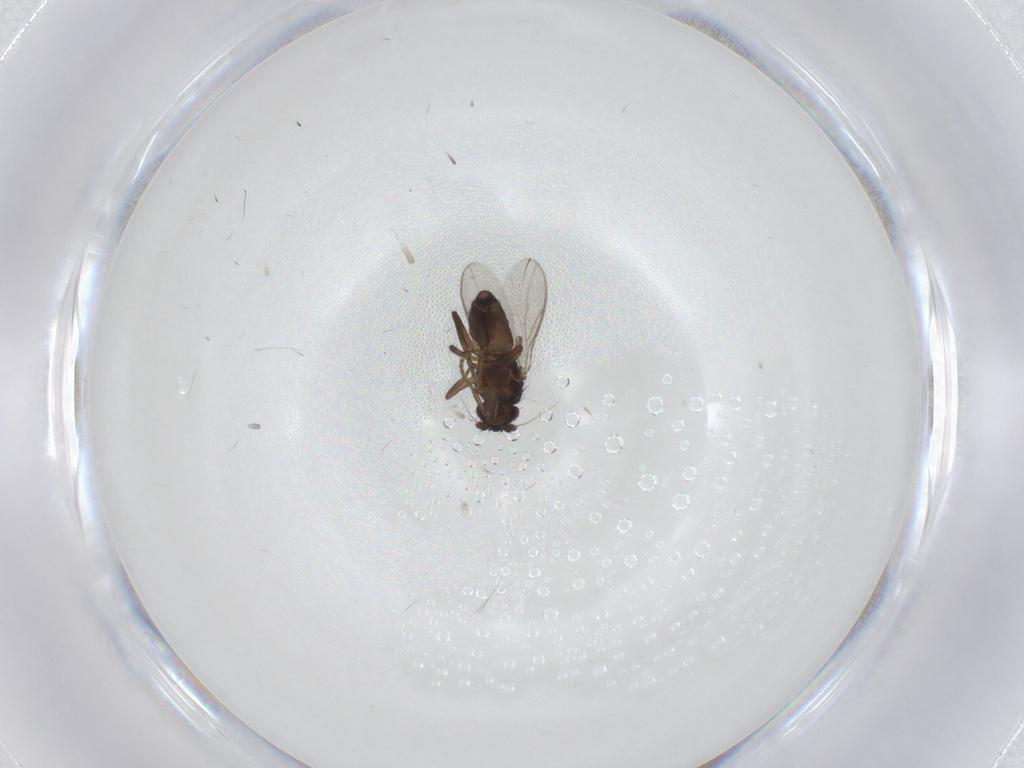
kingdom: Animalia
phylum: Arthropoda
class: Insecta
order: Diptera
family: Sphaeroceridae
